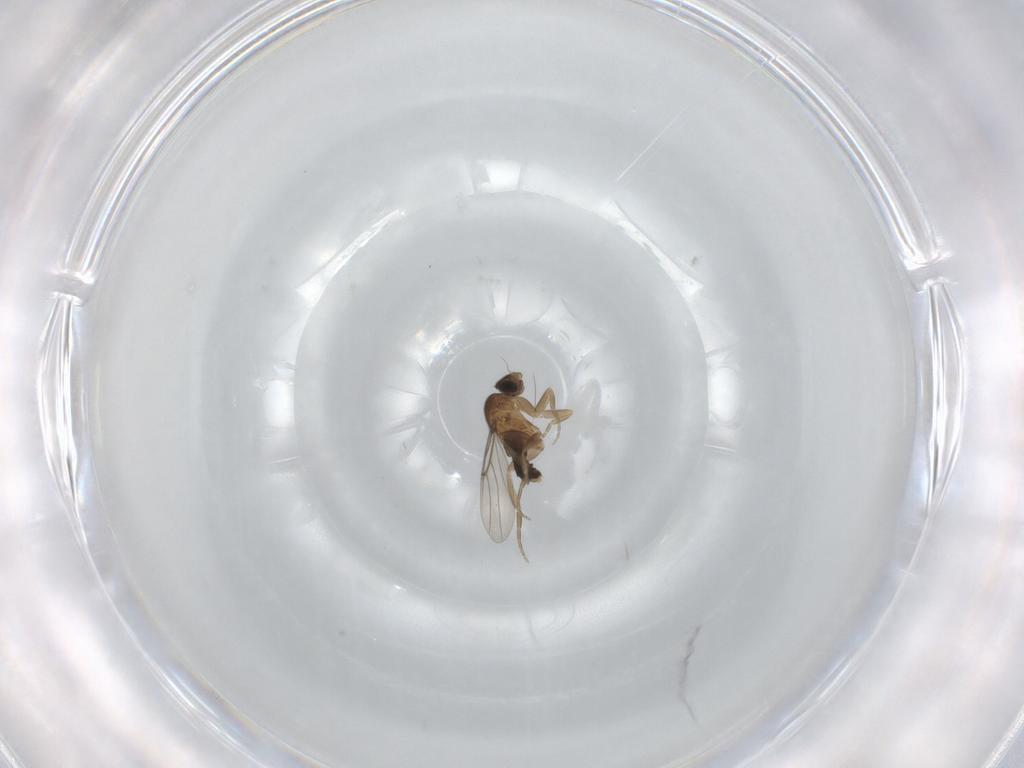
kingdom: Animalia
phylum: Arthropoda
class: Insecta
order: Diptera
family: Phoridae
